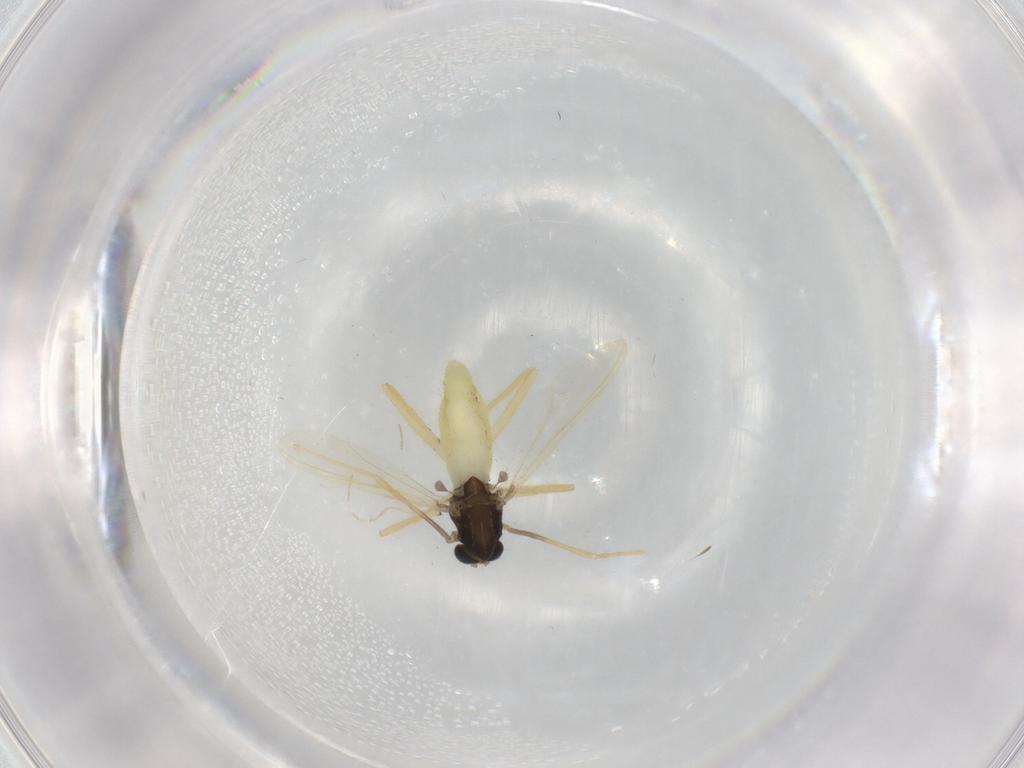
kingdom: Animalia
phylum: Arthropoda
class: Insecta
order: Diptera
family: Chironomidae
